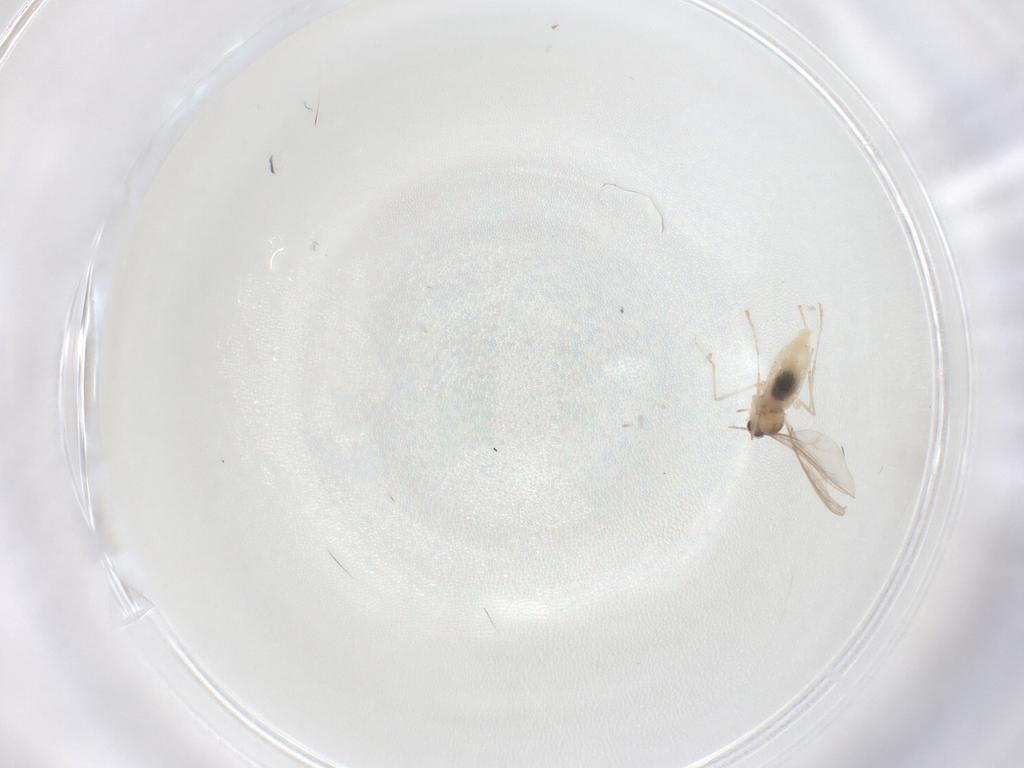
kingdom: Animalia
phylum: Arthropoda
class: Insecta
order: Diptera
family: Cecidomyiidae
